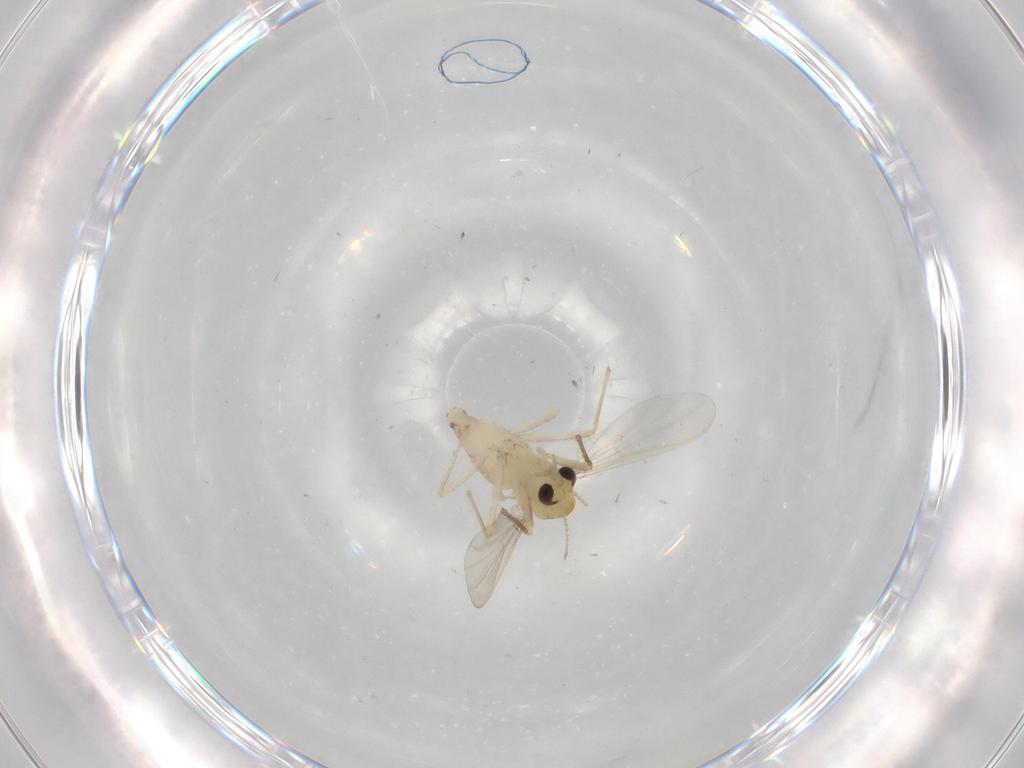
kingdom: Animalia
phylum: Arthropoda
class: Insecta
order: Diptera
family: Chironomidae
